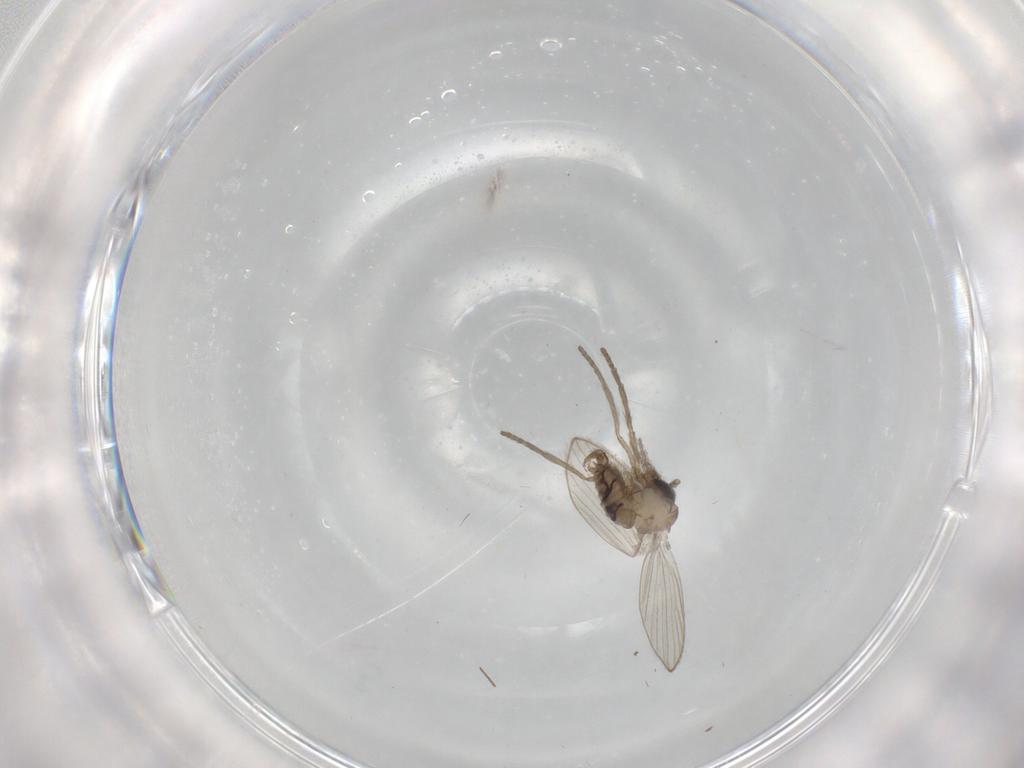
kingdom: Animalia
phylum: Arthropoda
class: Insecta
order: Diptera
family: Psychodidae
